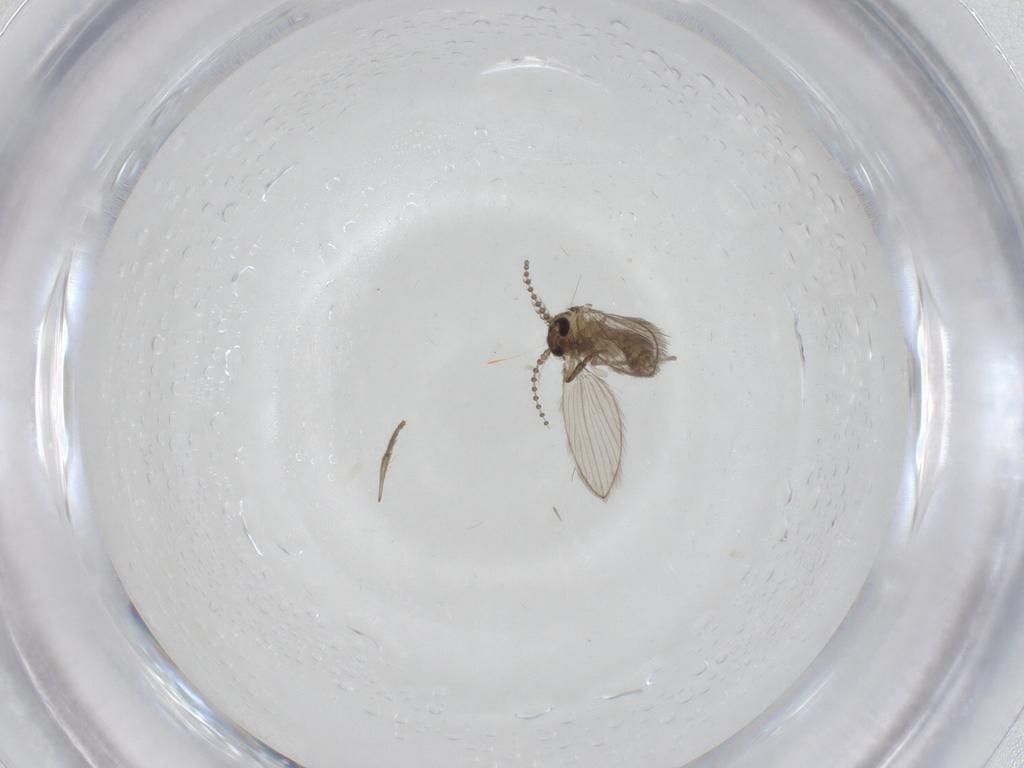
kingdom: Animalia
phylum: Arthropoda
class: Insecta
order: Diptera
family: Psychodidae
